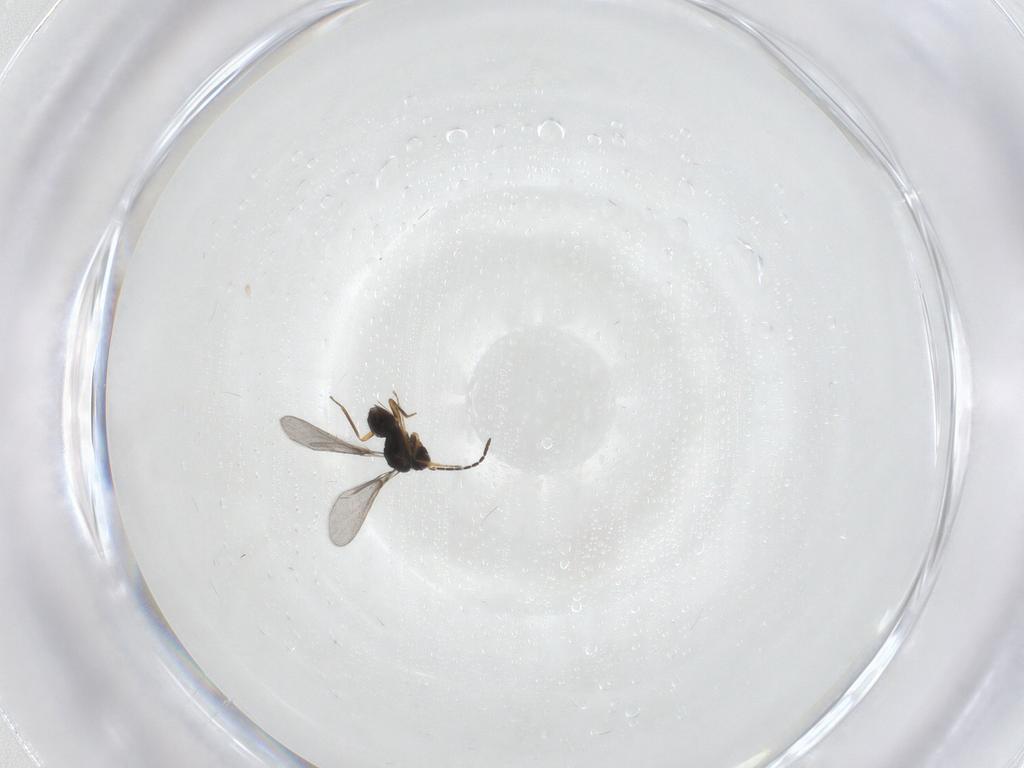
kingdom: Animalia
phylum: Arthropoda
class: Insecta
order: Hymenoptera
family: Mymaridae
